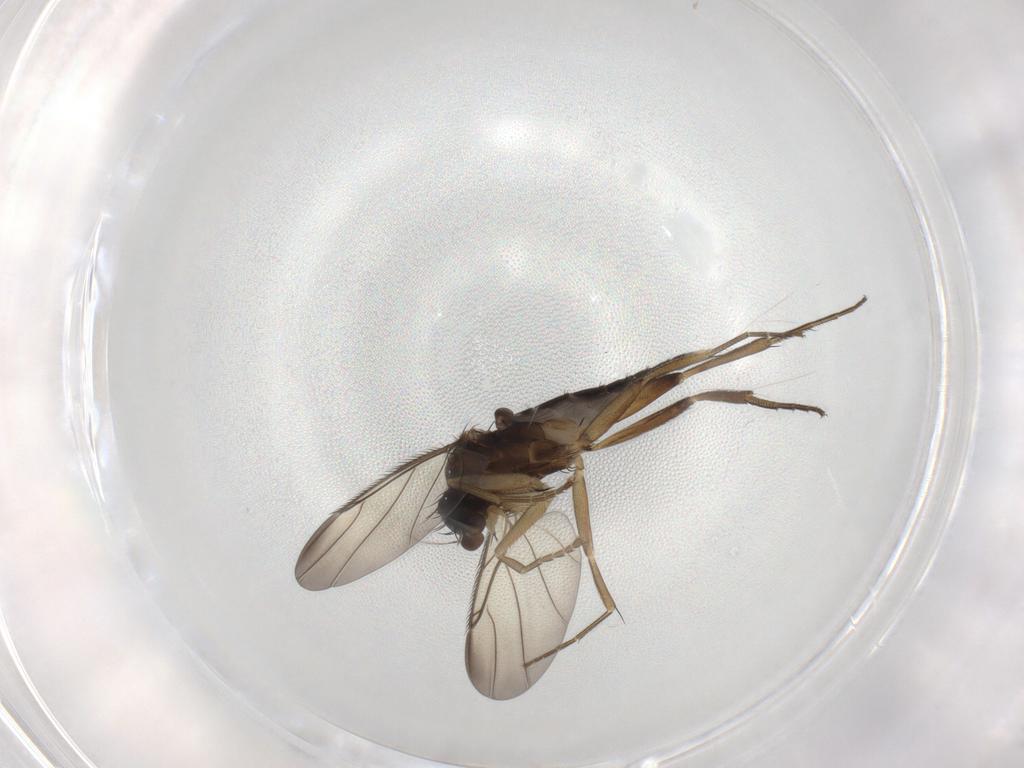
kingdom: Animalia
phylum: Arthropoda
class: Insecta
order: Diptera
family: Phoridae
